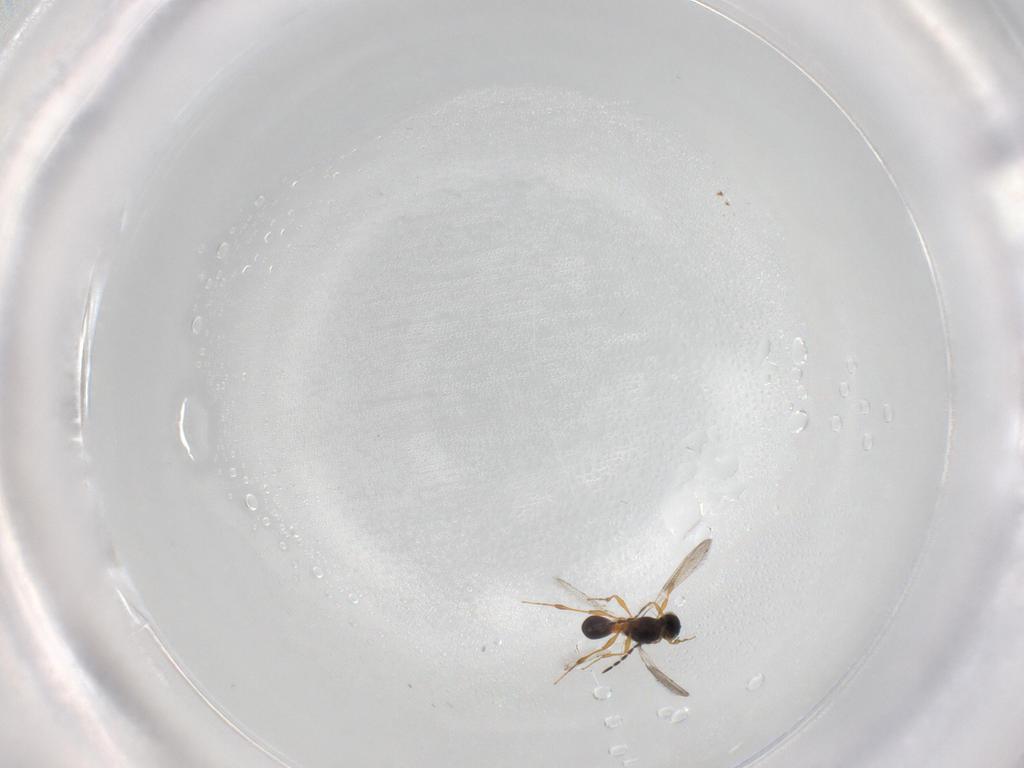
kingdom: Animalia
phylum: Arthropoda
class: Insecta
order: Hymenoptera
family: Platygastridae
